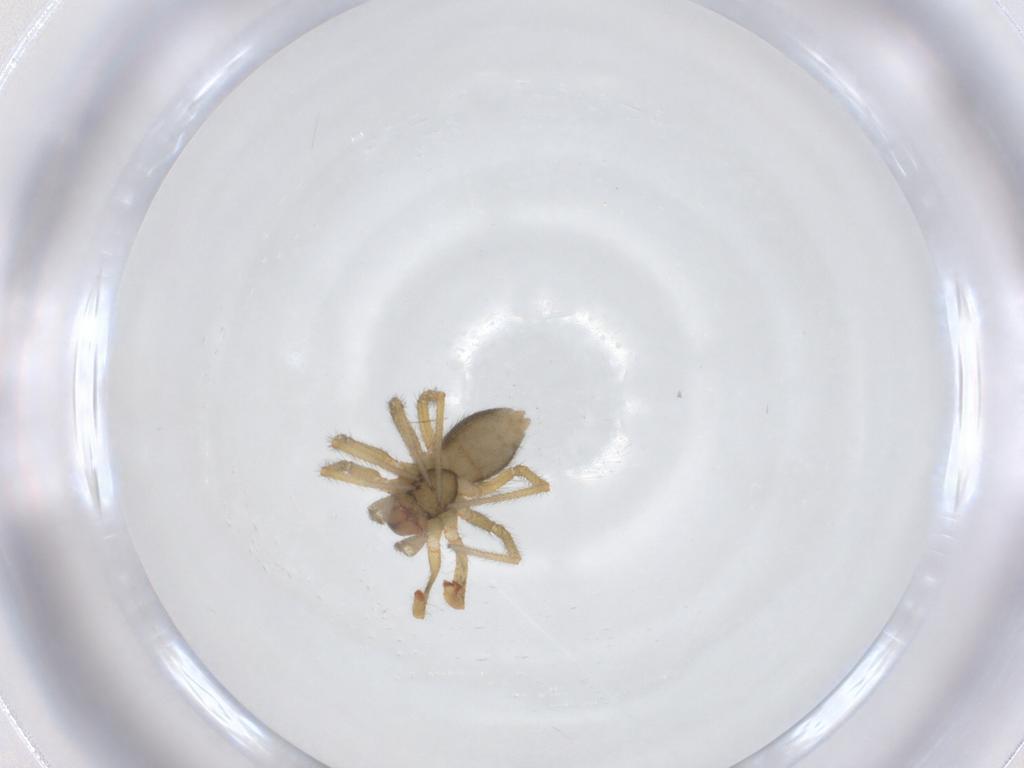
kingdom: Animalia
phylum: Arthropoda
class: Arachnida
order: Araneae
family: Linyphiidae
